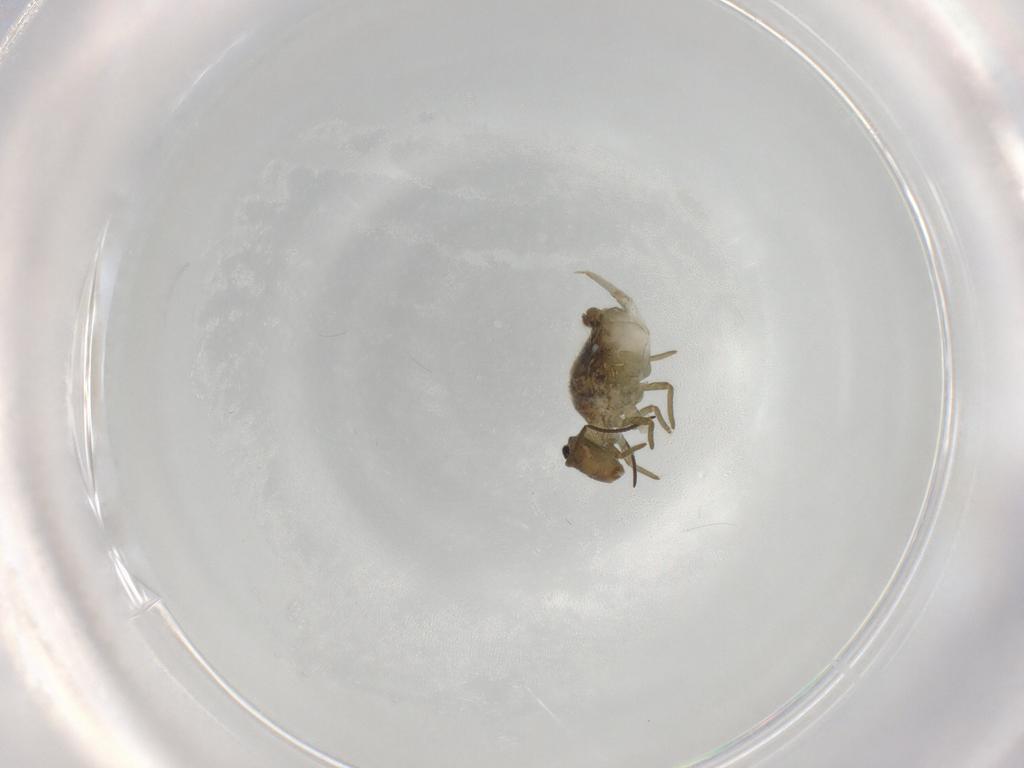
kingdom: Animalia
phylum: Arthropoda
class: Collembola
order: Symphypleona
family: Sminthuridae
